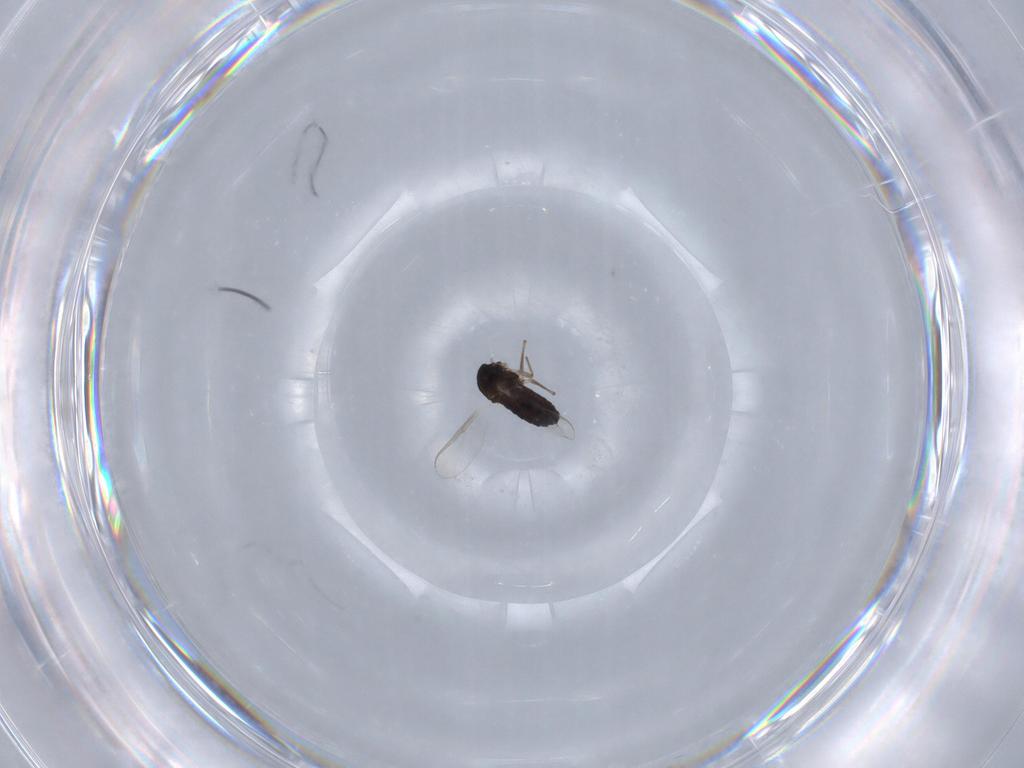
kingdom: Animalia
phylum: Arthropoda
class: Insecta
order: Diptera
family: Chironomidae
